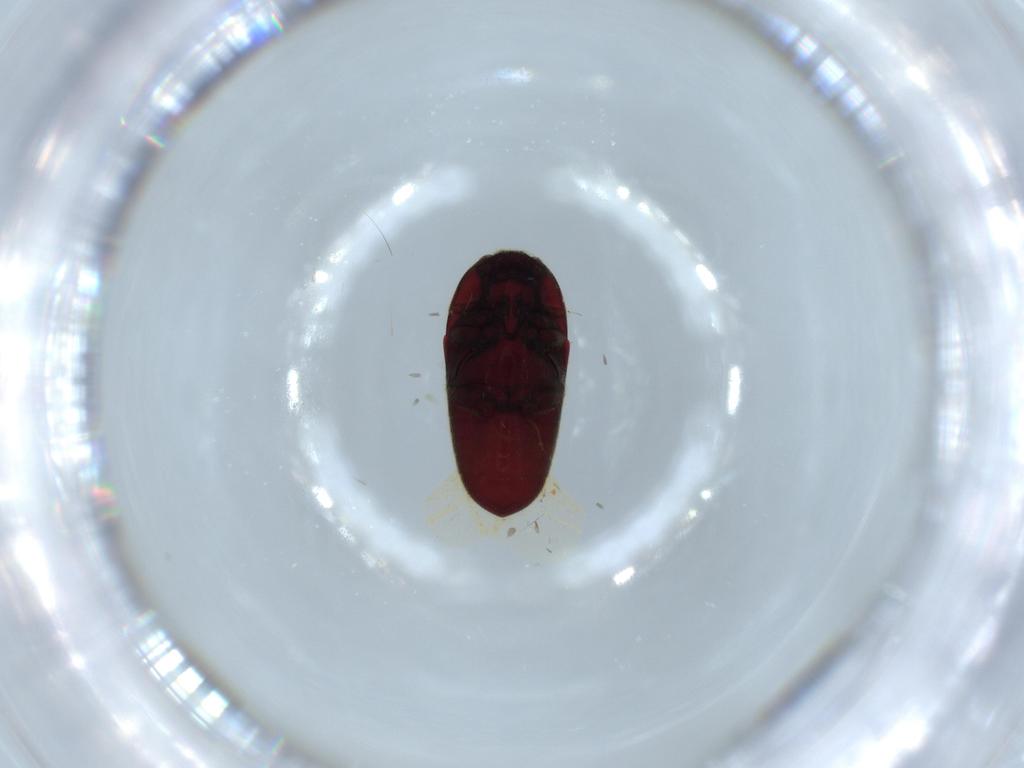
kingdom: Animalia
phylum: Arthropoda
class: Insecta
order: Coleoptera
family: Throscidae
